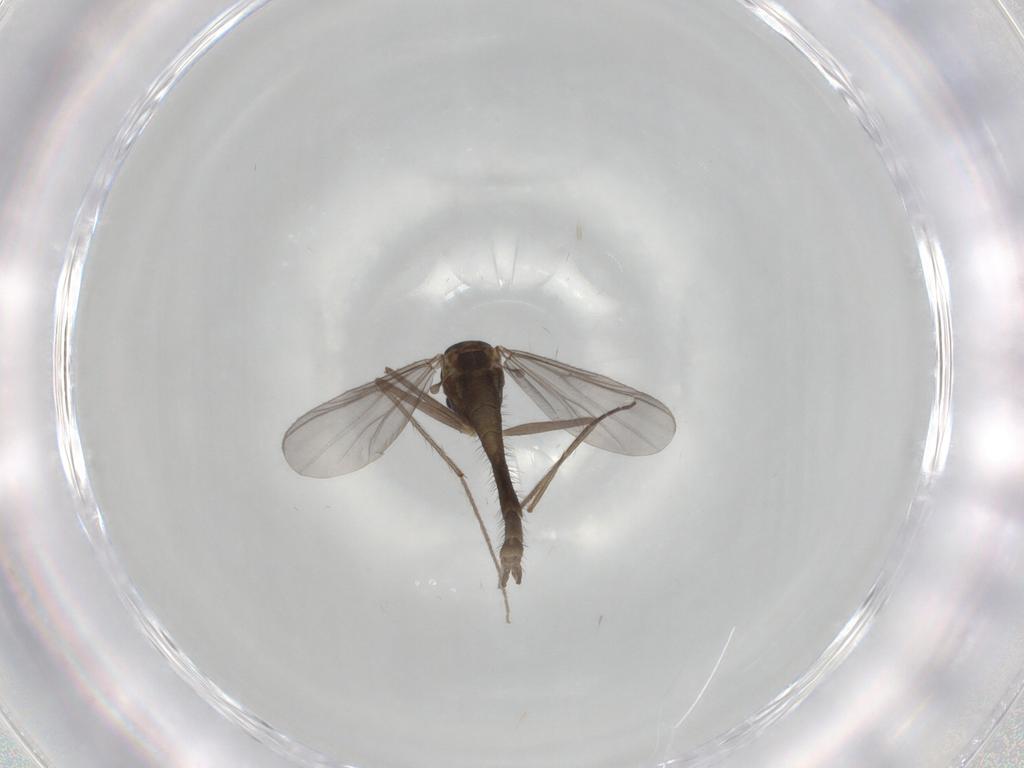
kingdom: Animalia
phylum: Arthropoda
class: Insecta
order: Diptera
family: Chironomidae
